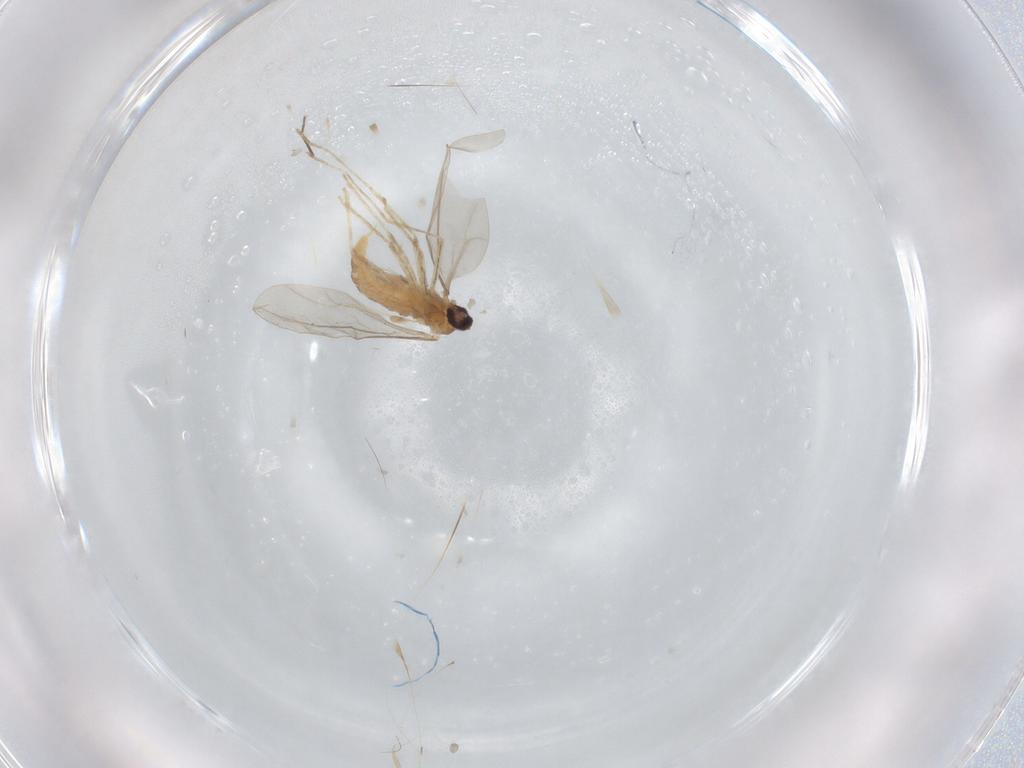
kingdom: Animalia
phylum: Arthropoda
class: Insecta
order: Diptera
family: Cecidomyiidae
